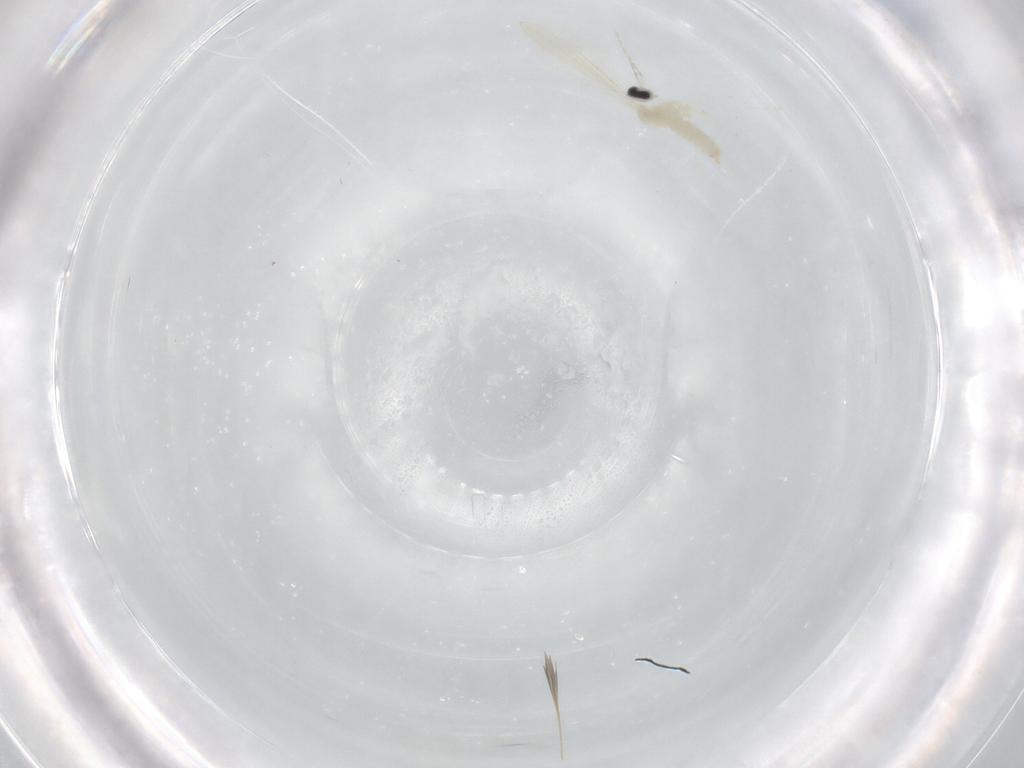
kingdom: Animalia
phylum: Arthropoda
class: Insecta
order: Diptera
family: Cecidomyiidae
